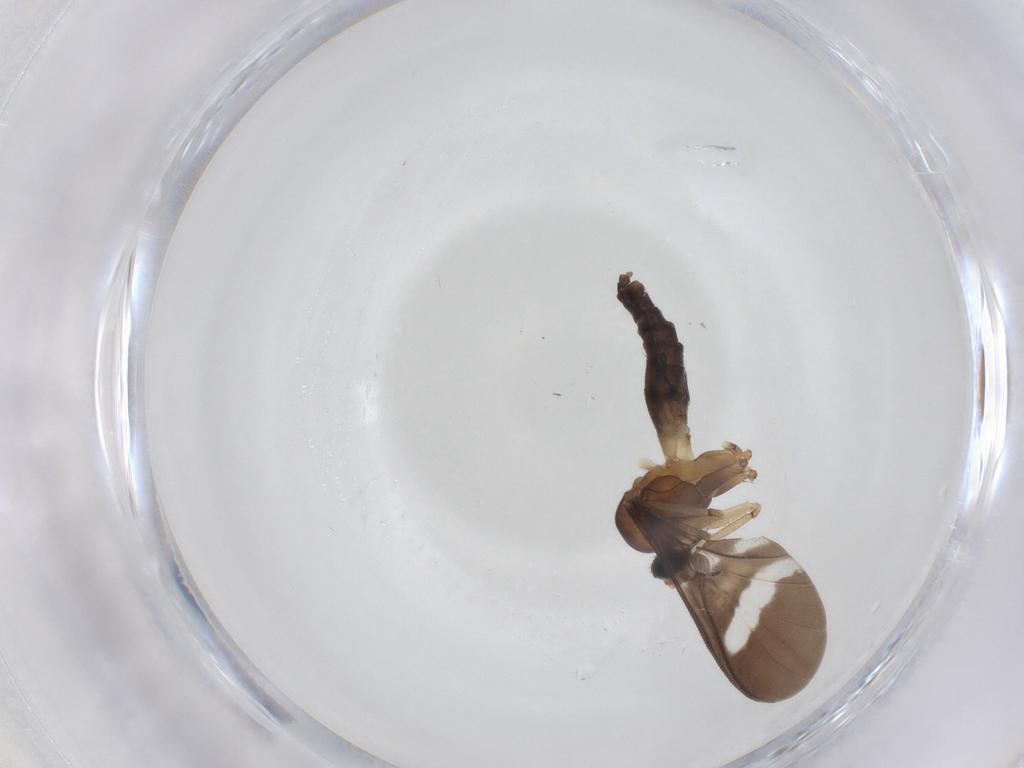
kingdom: Animalia
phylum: Arthropoda
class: Insecta
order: Diptera
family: Keroplatidae
